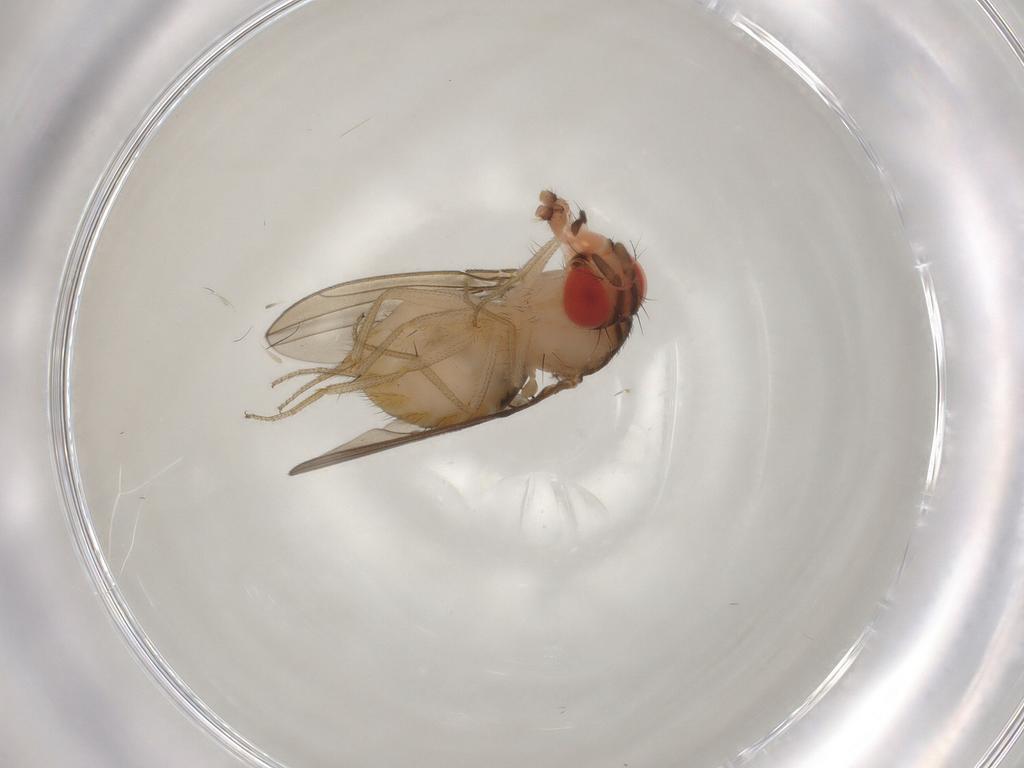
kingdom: Animalia
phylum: Arthropoda
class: Insecta
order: Diptera
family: Drosophilidae
